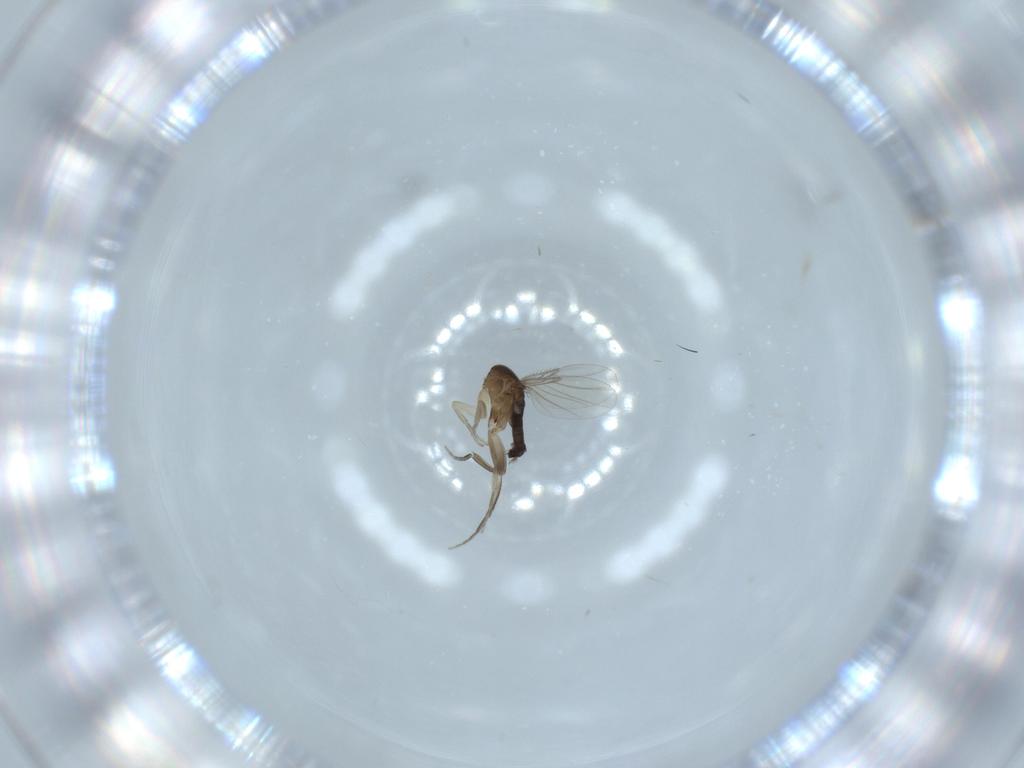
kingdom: Animalia
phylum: Arthropoda
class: Insecta
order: Diptera
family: Phoridae
